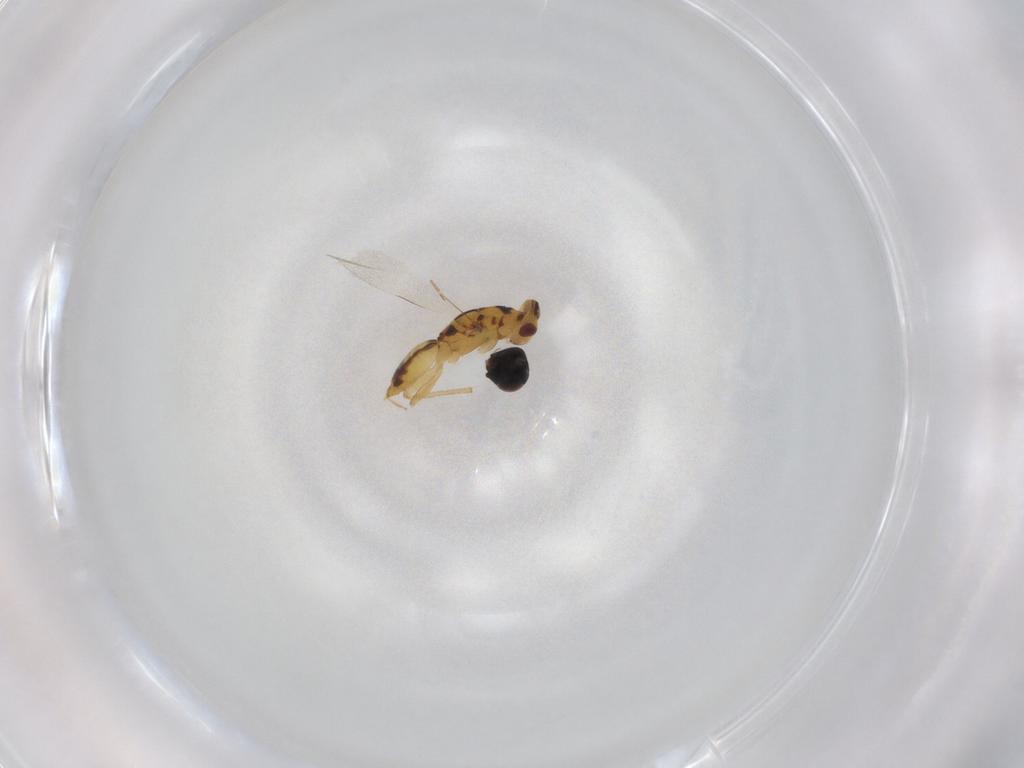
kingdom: Animalia
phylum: Arthropoda
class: Insecta
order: Hymenoptera
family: Eulophidae
